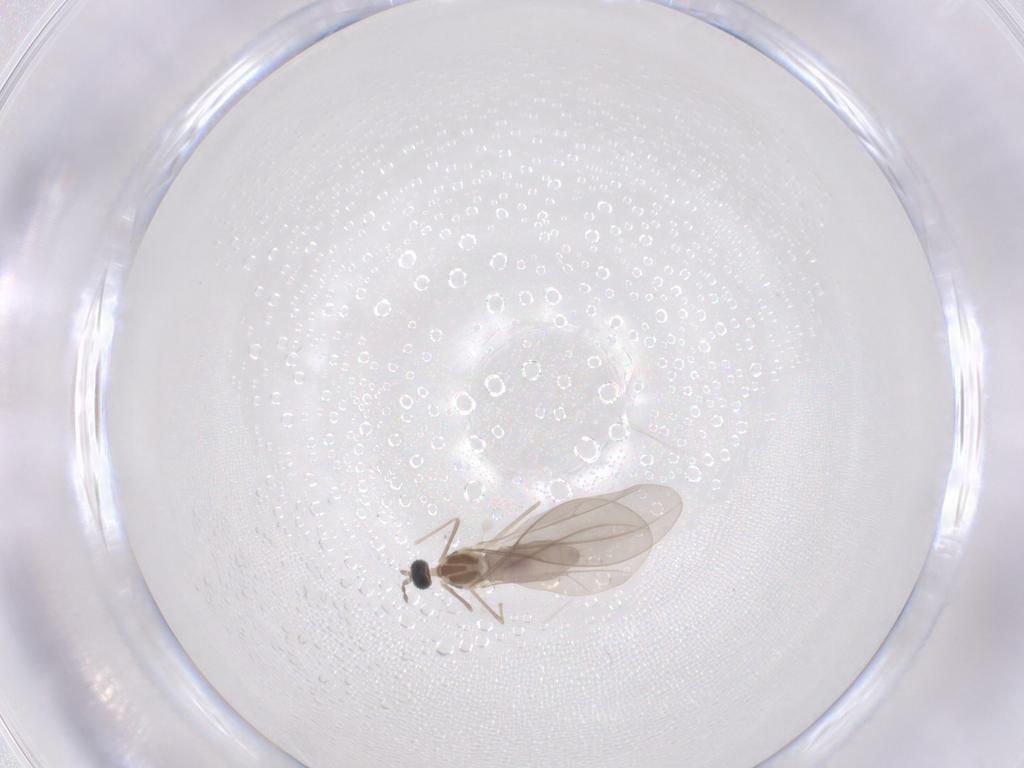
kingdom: Animalia
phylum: Arthropoda
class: Insecta
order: Diptera
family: Cecidomyiidae
